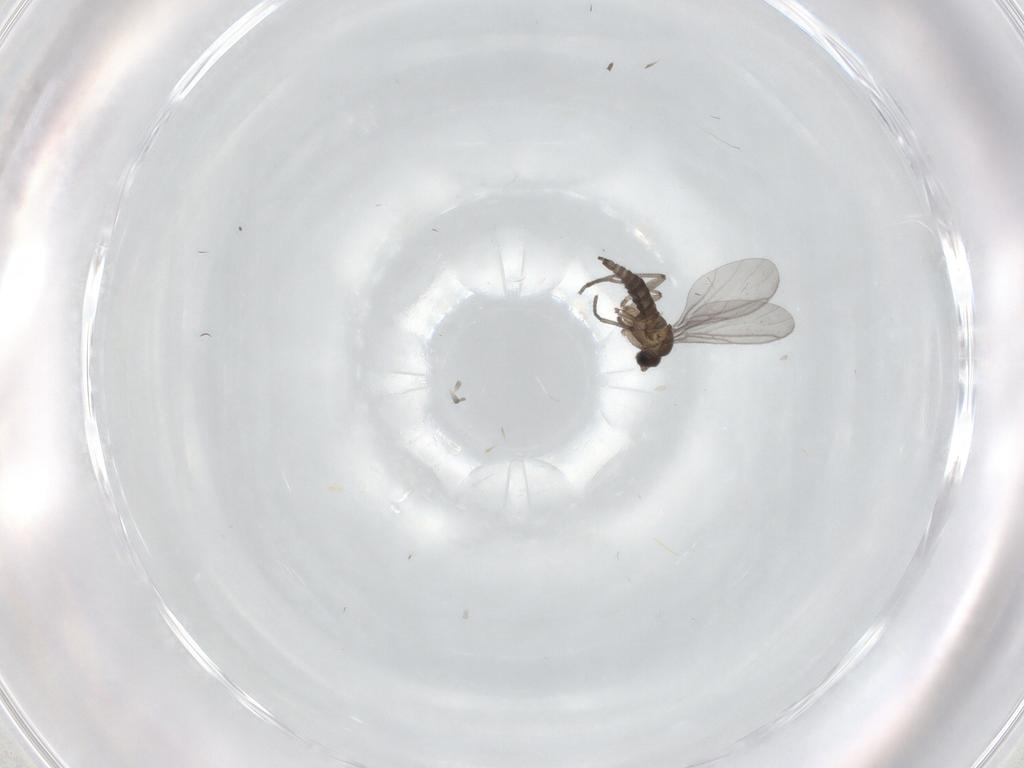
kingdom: Animalia
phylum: Arthropoda
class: Insecta
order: Diptera
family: Sciaridae
